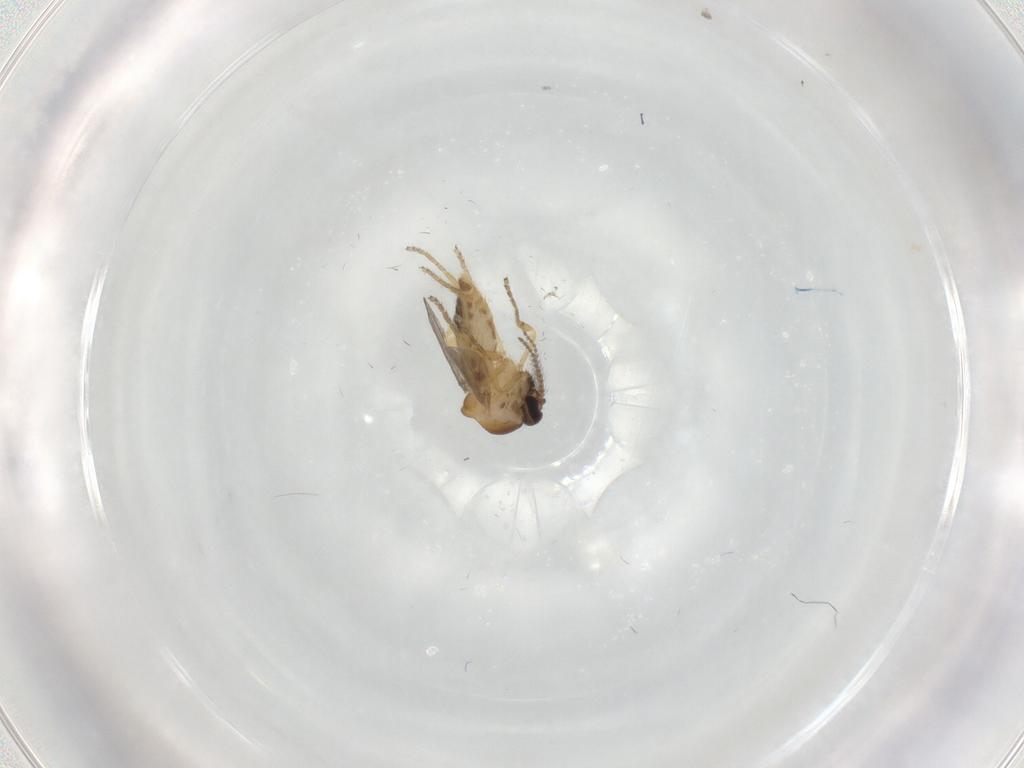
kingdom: Animalia
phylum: Arthropoda
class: Insecta
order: Diptera
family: Ceratopogonidae
